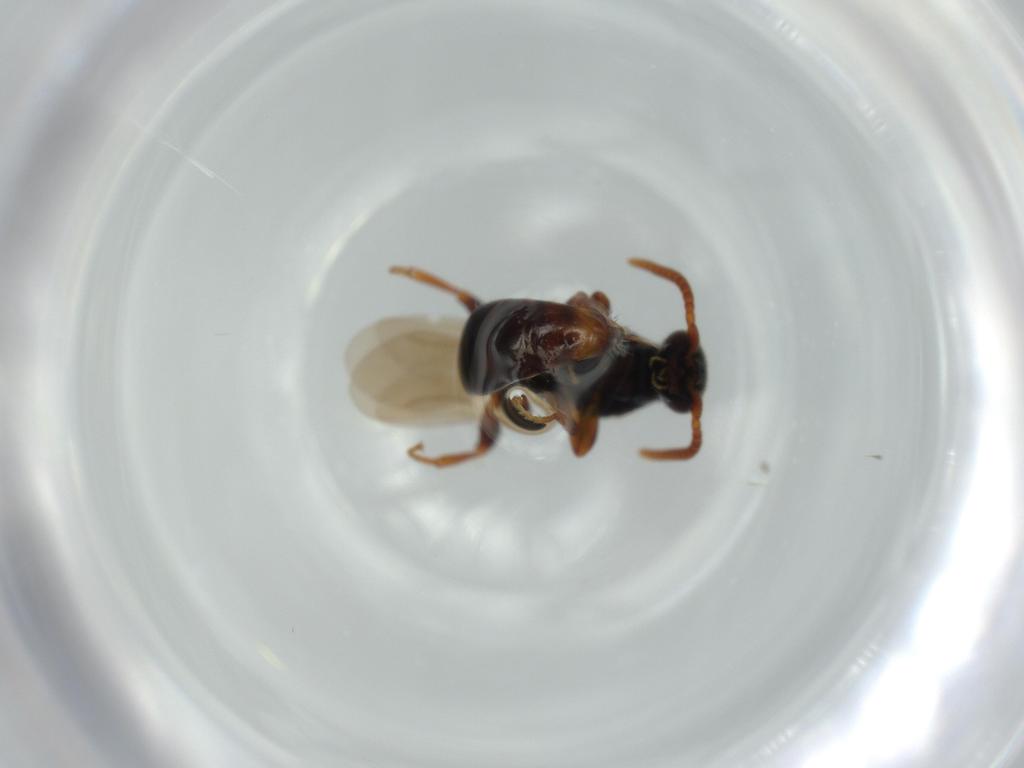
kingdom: Animalia
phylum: Arthropoda
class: Insecta
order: Hymenoptera
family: Bethylidae
